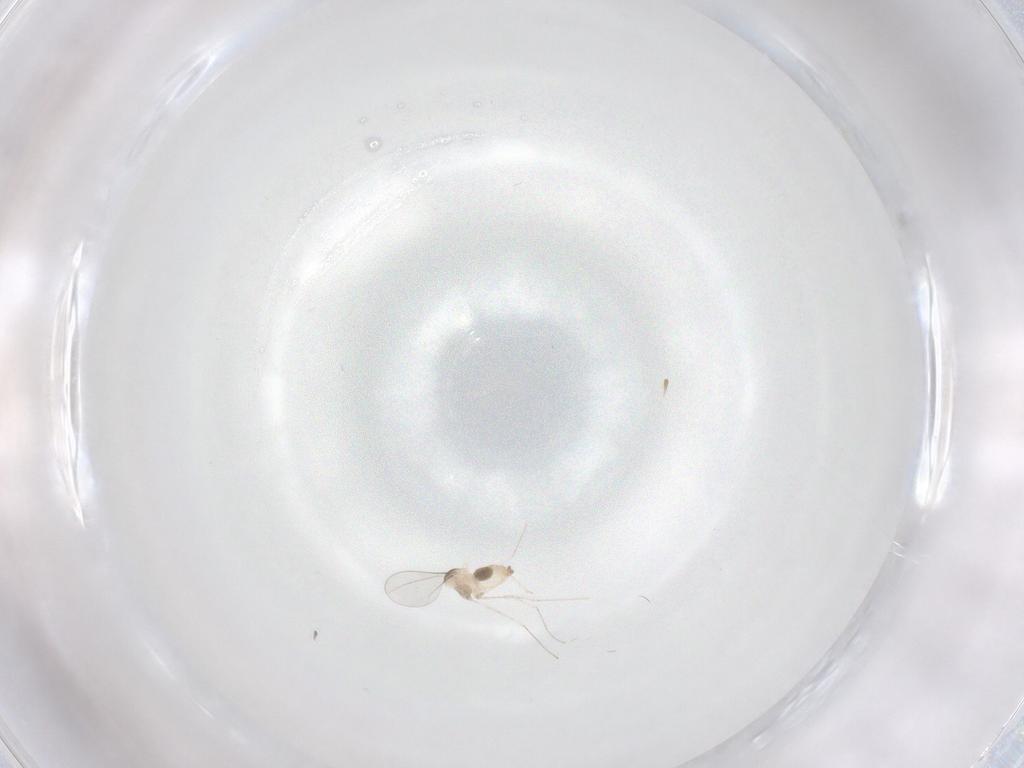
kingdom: Animalia
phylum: Arthropoda
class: Insecta
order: Diptera
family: Cecidomyiidae
